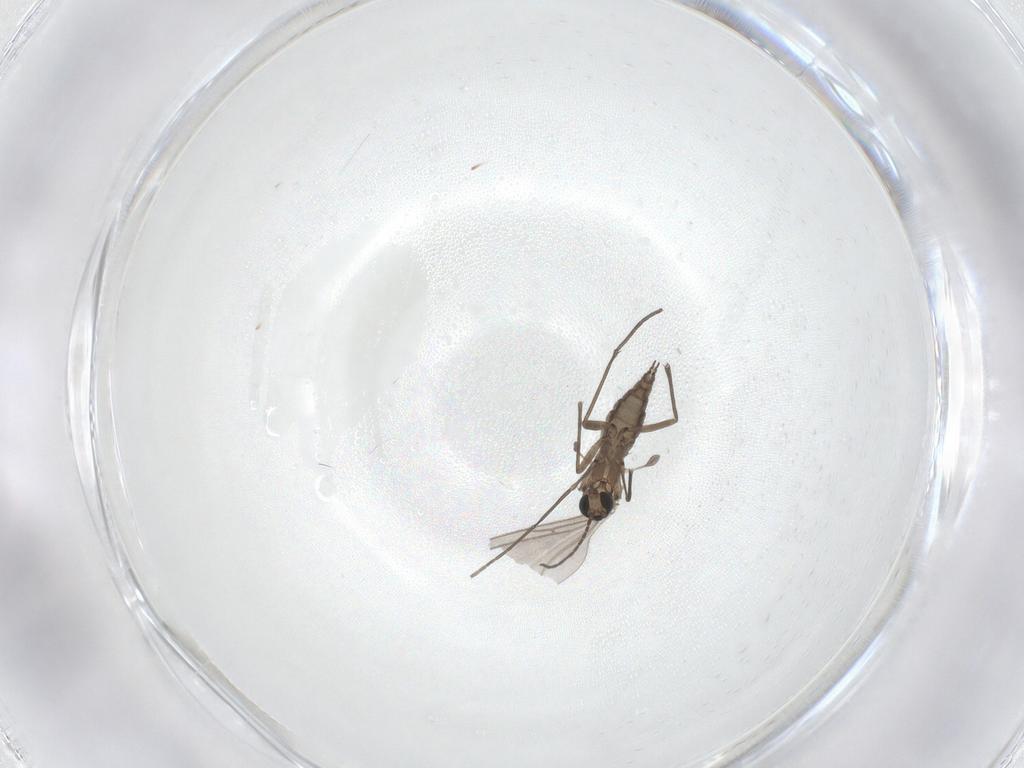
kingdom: Animalia
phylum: Arthropoda
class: Insecta
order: Diptera
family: Sciaridae
